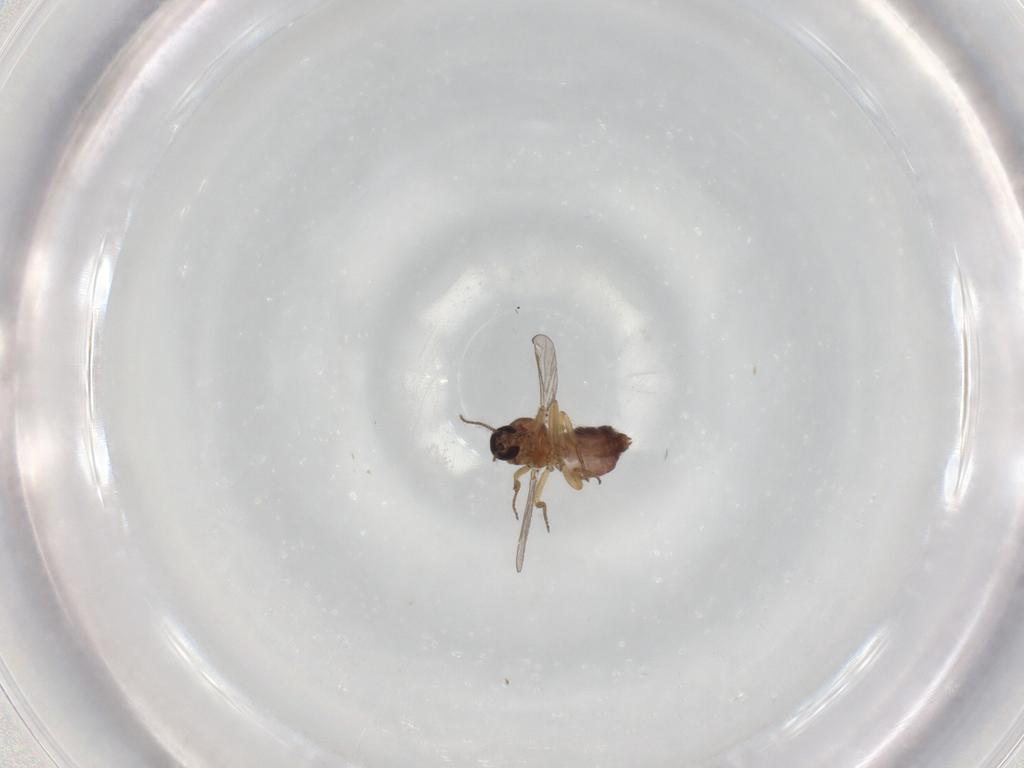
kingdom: Animalia
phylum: Arthropoda
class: Insecta
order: Diptera
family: Ceratopogonidae
